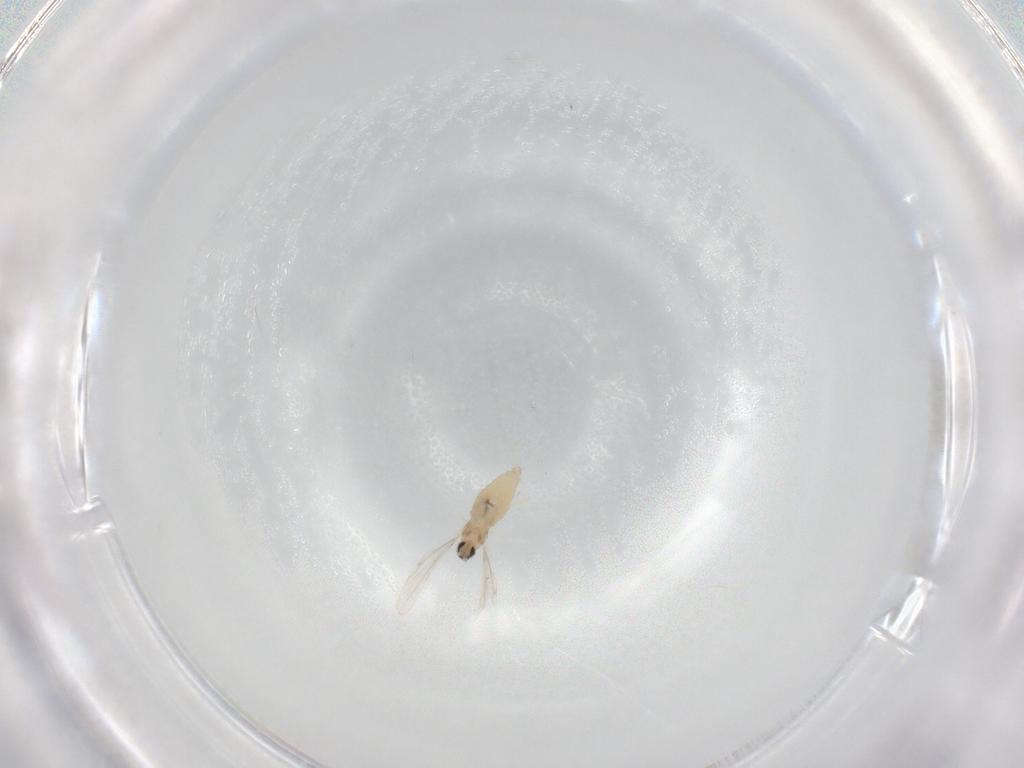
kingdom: Animalia
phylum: Arthropoda
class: Insecta
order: Diptera
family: Cecidomyiidae
